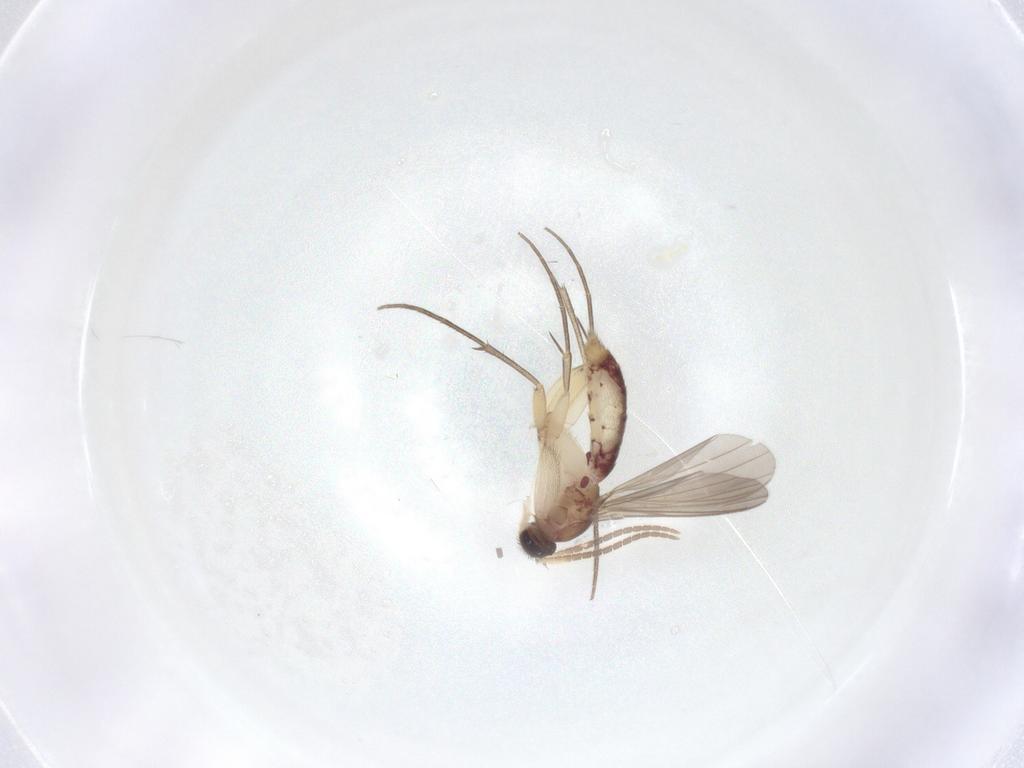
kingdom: Animalia
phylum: Arthropoda
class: Insecta
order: Diptera
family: Mycetophilidae
